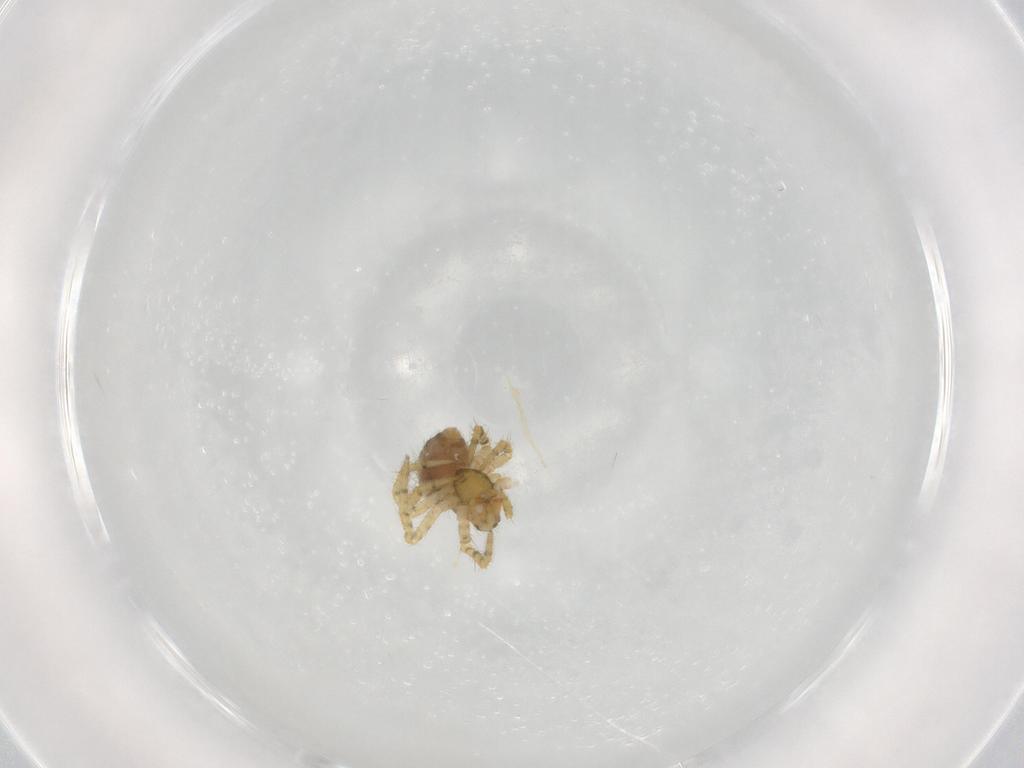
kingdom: Animalia
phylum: Arthropoda
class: Arachnida
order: Araneae
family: Theridiidae
